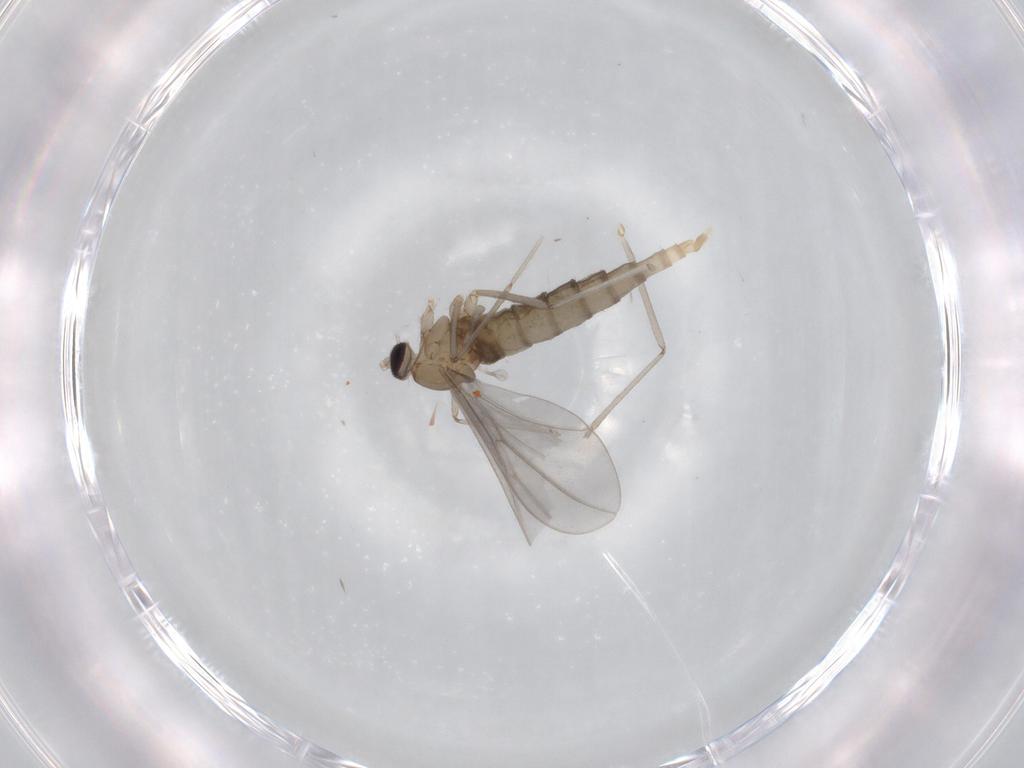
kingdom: Animalia
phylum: Arthropoda
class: Insecta
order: Diptera
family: Cecidomyiidae
